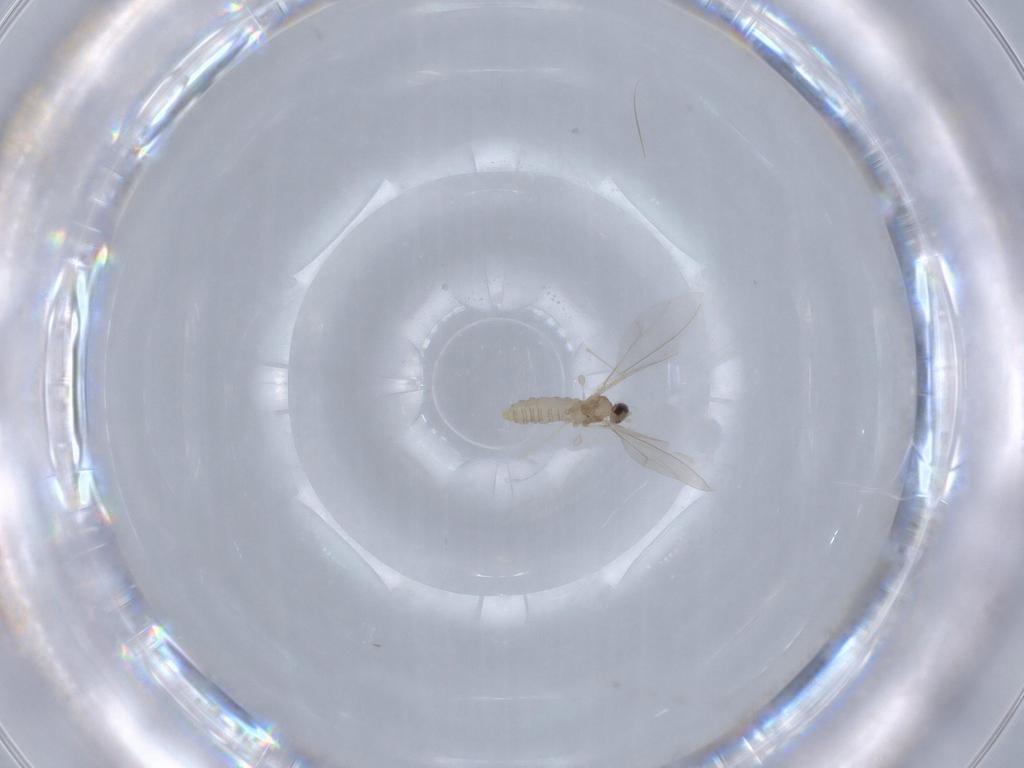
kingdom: Animalia
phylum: Arthropoda
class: Insecta
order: Diptera
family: Cecidomyiidae
